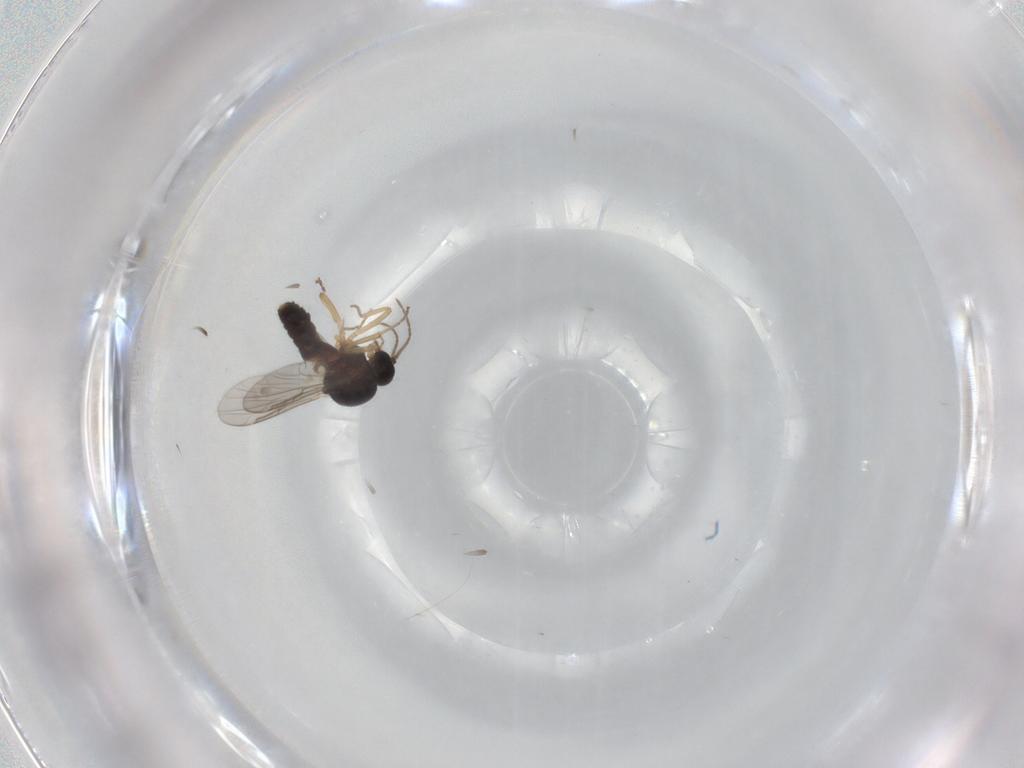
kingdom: Animalia
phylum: Arthropoda
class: Insecta
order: Diptera
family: Ceratopogonidae
